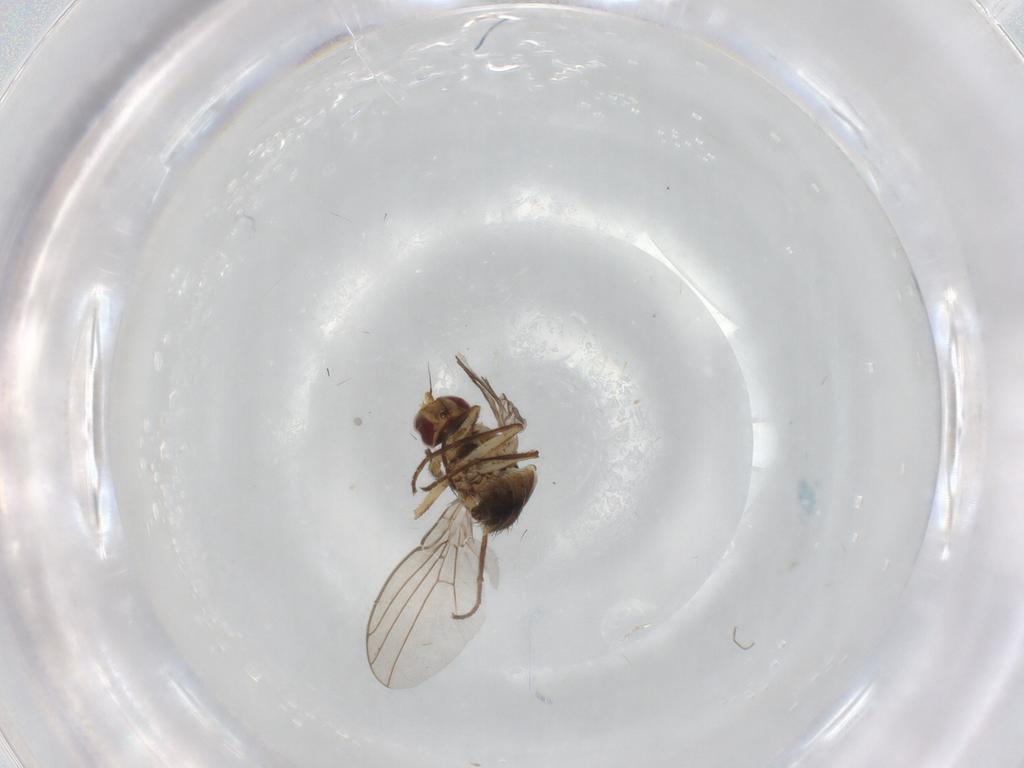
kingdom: Animalia
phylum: Arthropoda
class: Insecta
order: Diptera
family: Agromyzidae
